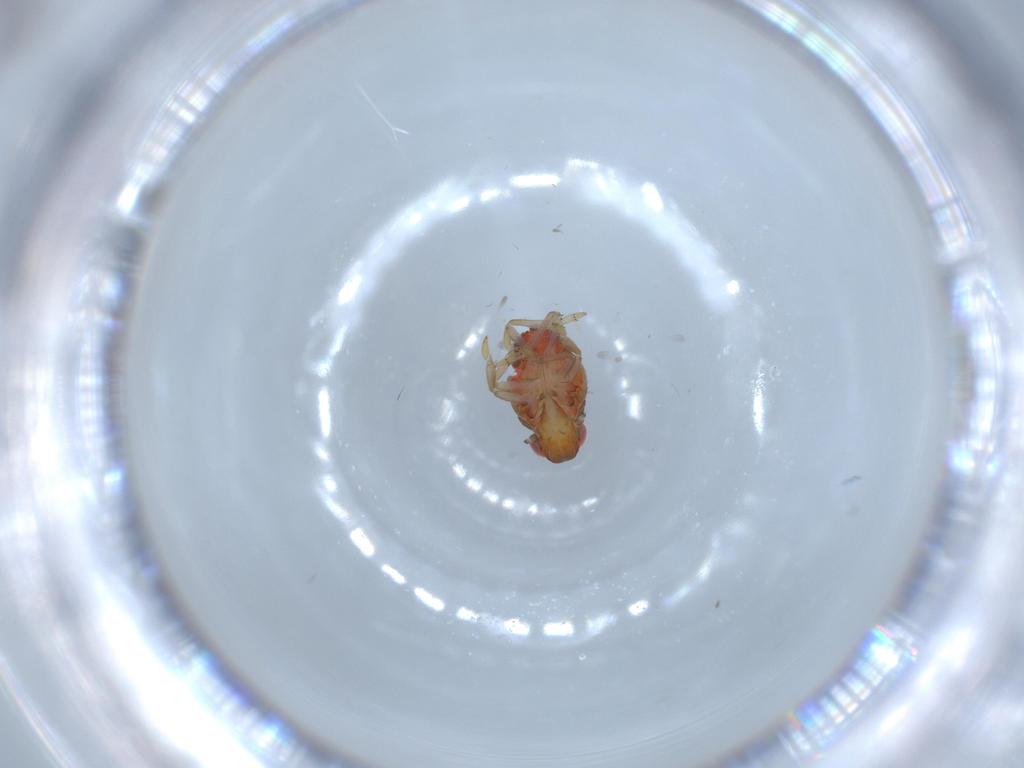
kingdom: Animalia
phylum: Arthropoda
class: Insecta
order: Hemiptera
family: Issidae
